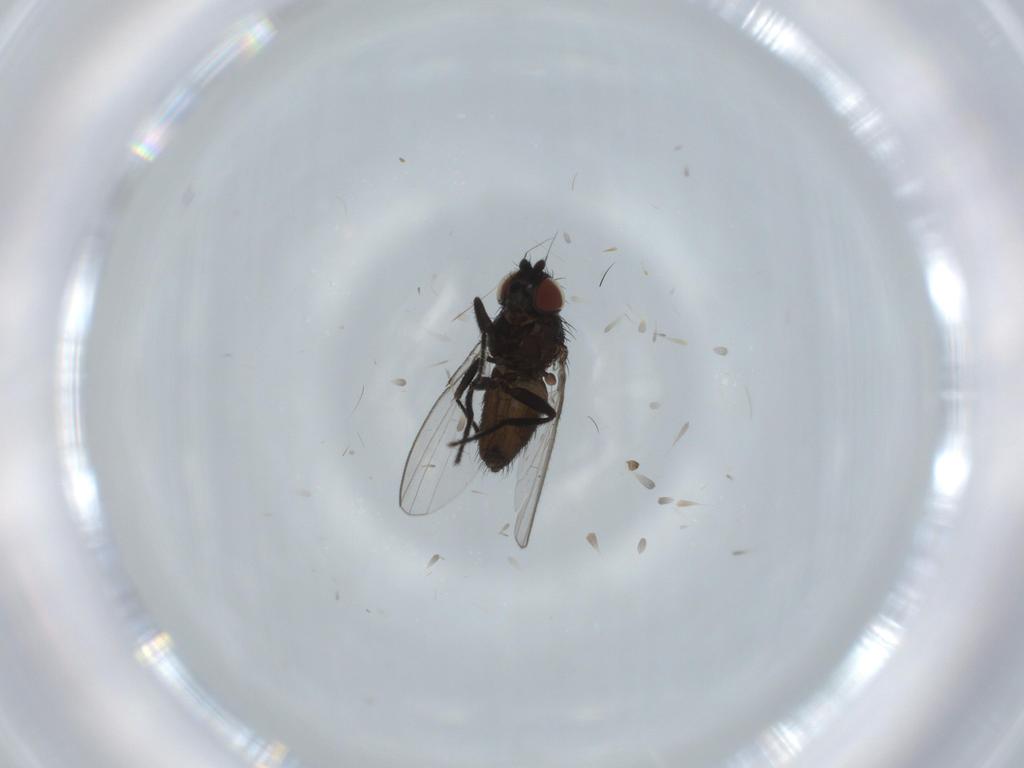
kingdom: Animalia
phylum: Arthropoda
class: Insecta
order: Diptera
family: Milichiidae
